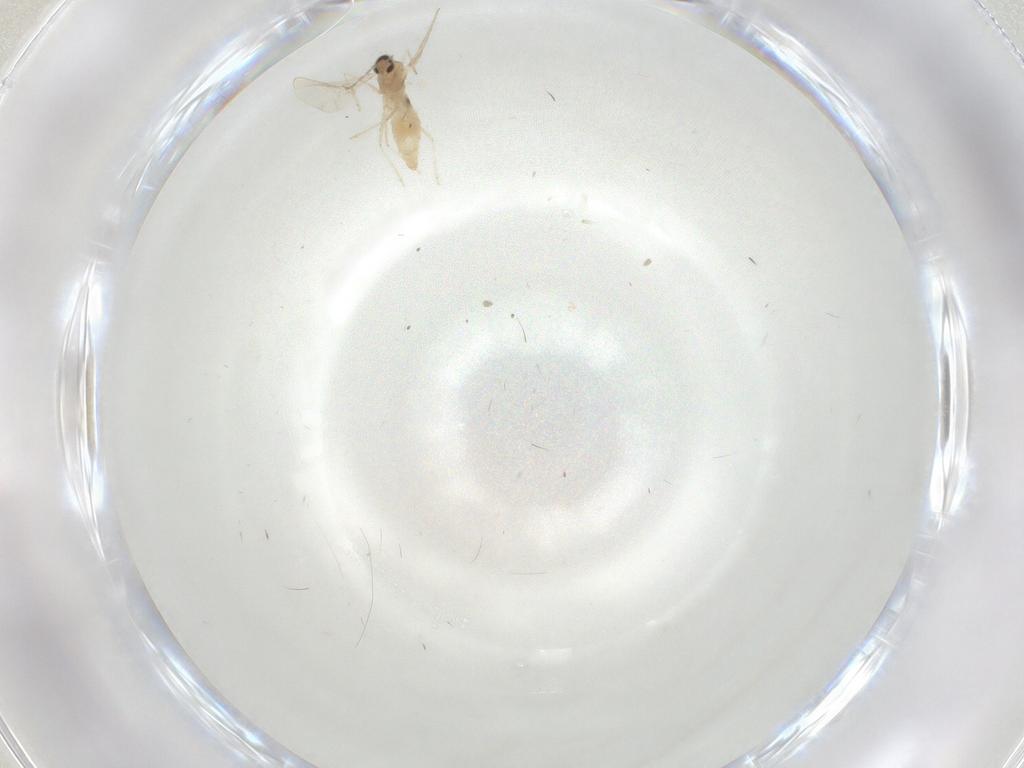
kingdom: Animalia
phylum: Arthropoda
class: Insecta
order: Diptera
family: Cecidomyiidae
